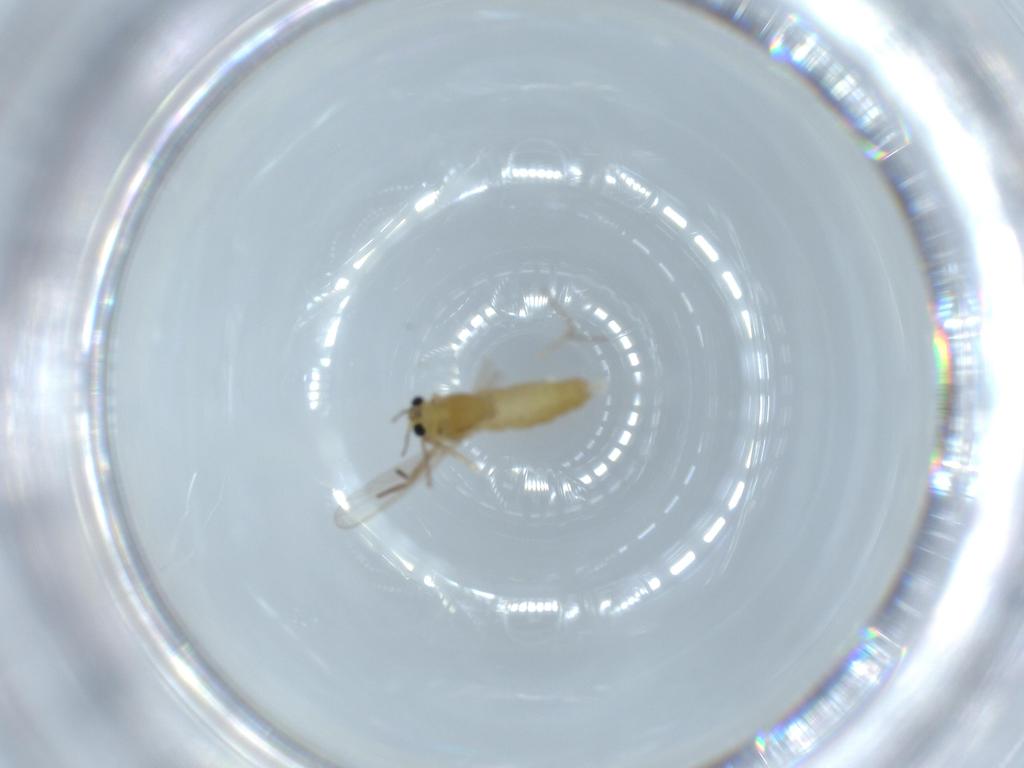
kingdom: Animalia
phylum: Arthropoda
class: Insecta
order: Diptera
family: Chironomidae
